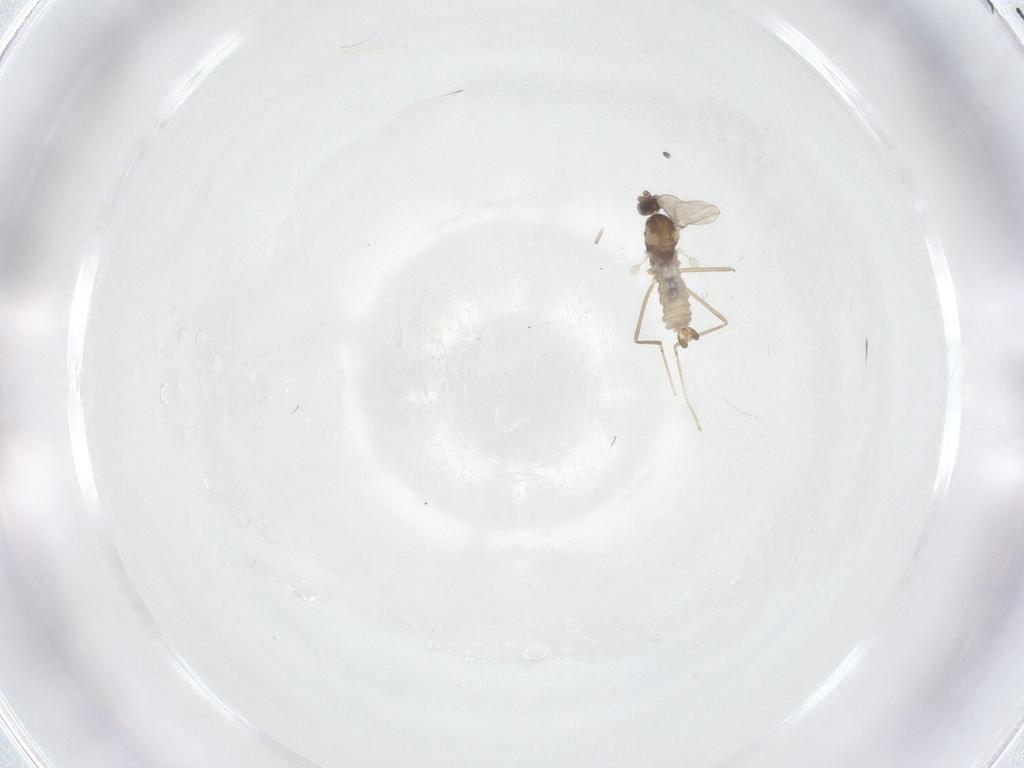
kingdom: Animalia
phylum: Arthropoda
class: Insecta
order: Diptera
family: Cecidomyiidae
